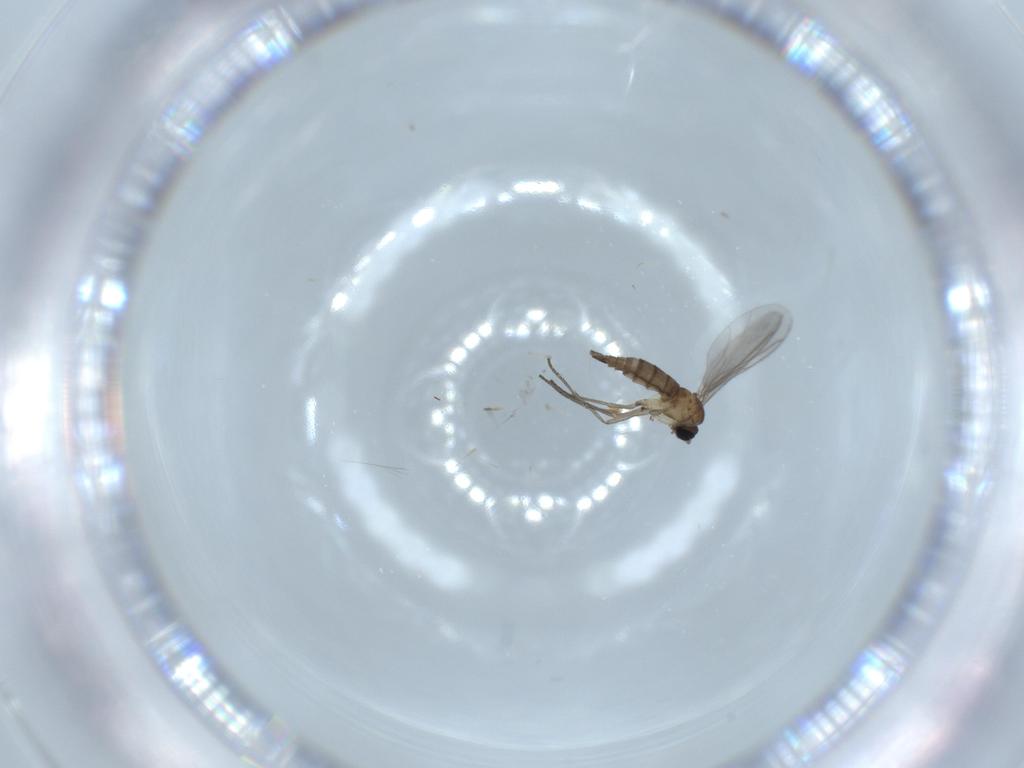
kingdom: Animalia
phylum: Arthropoda
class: Insecta
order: Diptera
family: Sciaridae
